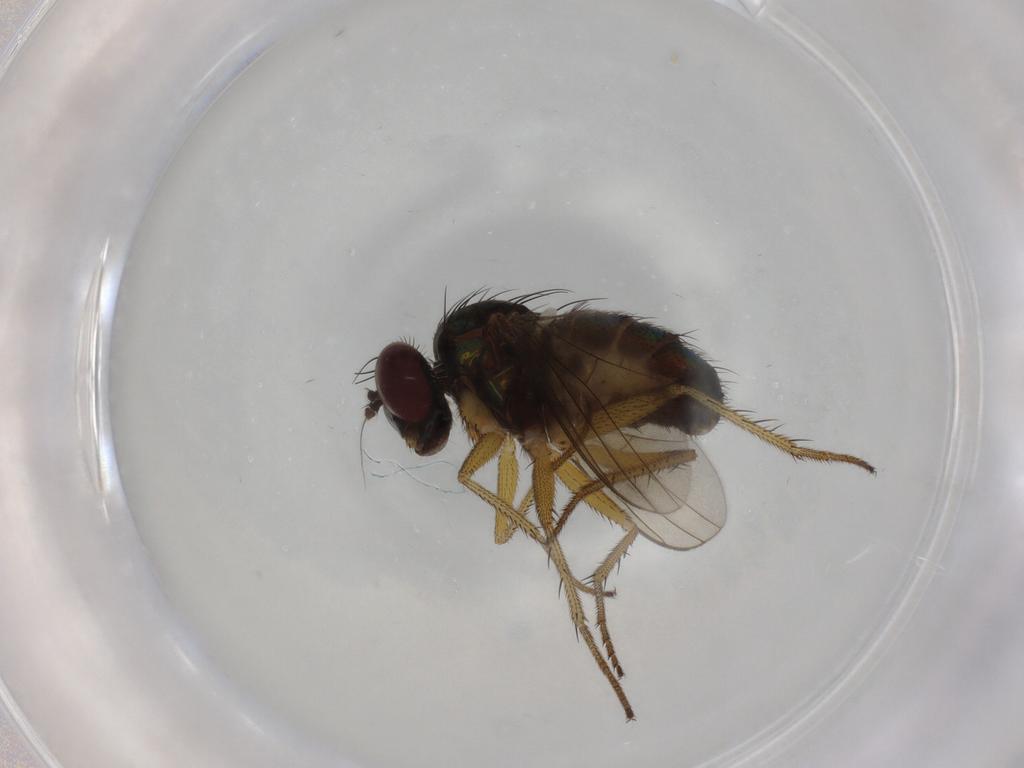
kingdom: Animalia
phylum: Arthropoda
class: Insecta
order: Diptera
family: Dolichopodidae
